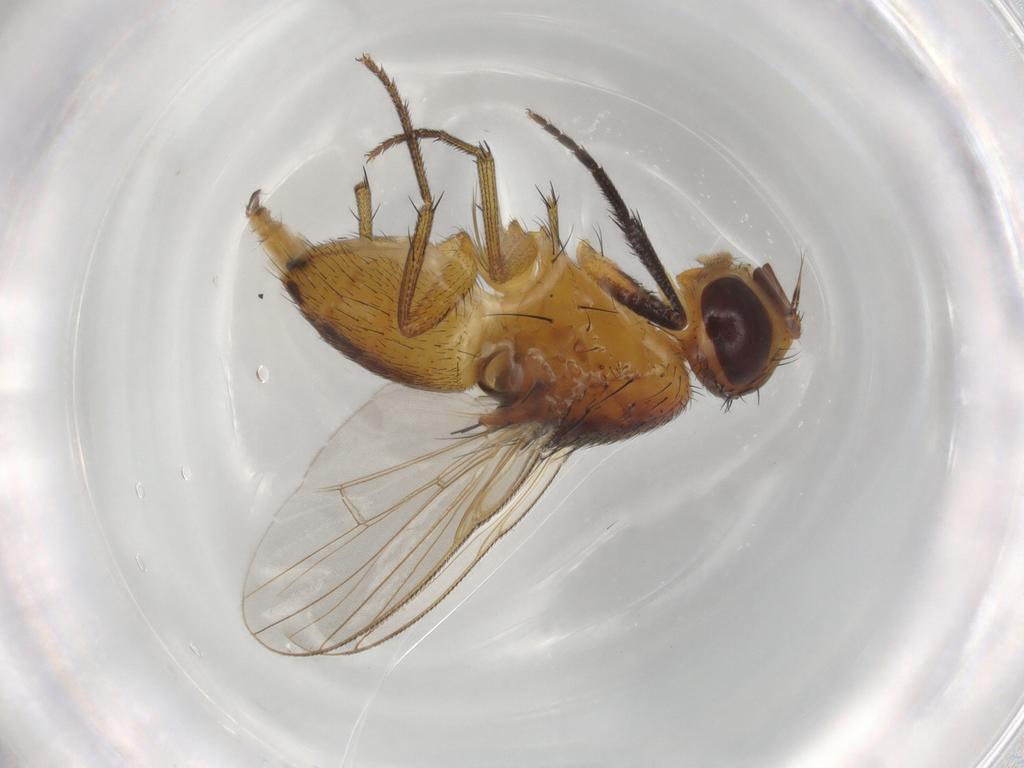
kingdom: Animalia
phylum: Arthropoda
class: Insecta
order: Diptera
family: Muscidae
